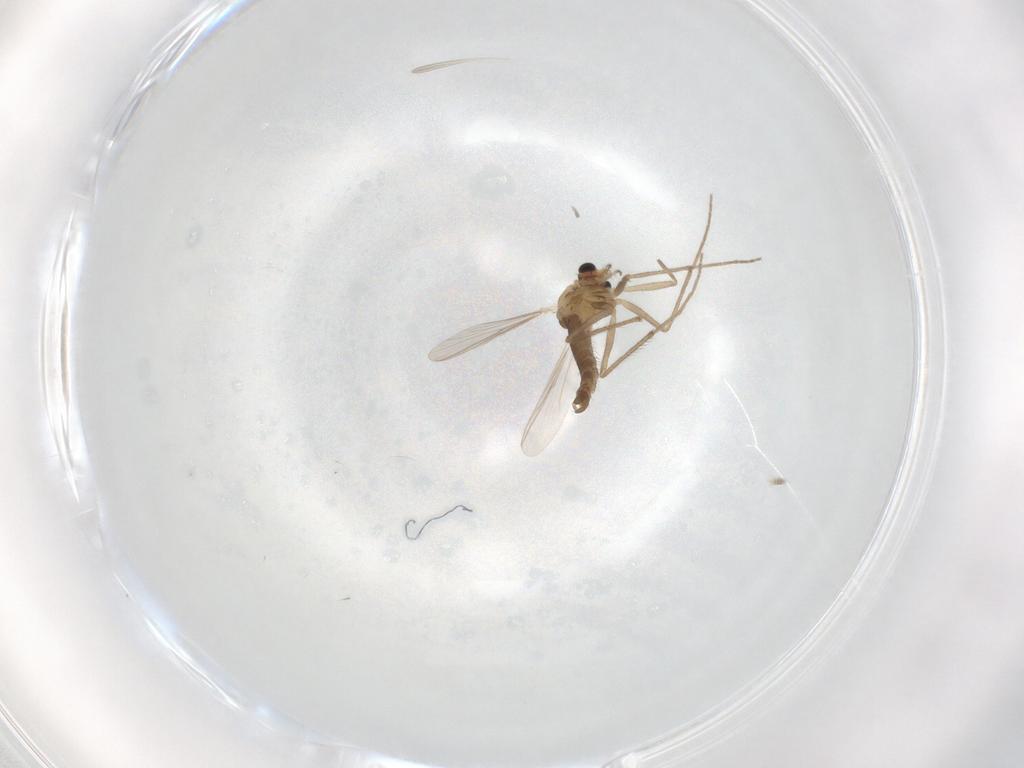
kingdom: Animalia
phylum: Arthropoda
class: Insecta
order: Diptera
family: Chironomidae
